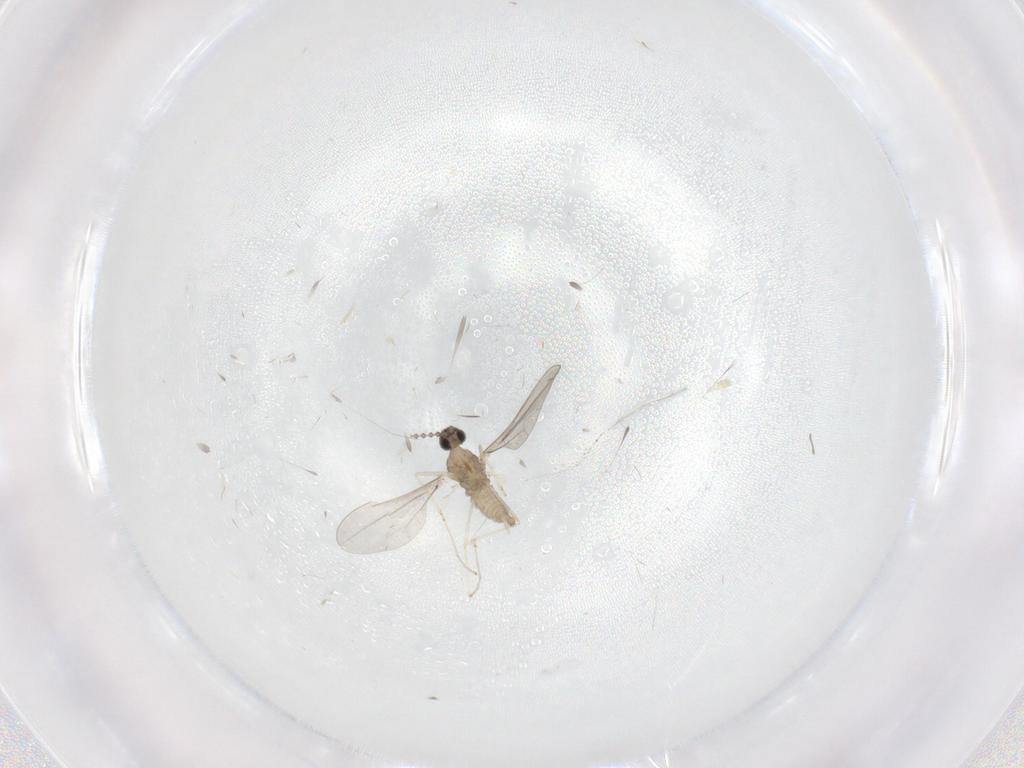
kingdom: Animalia
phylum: Arthropoda
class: Insecta
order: Diptera
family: Cecidomyiidae
